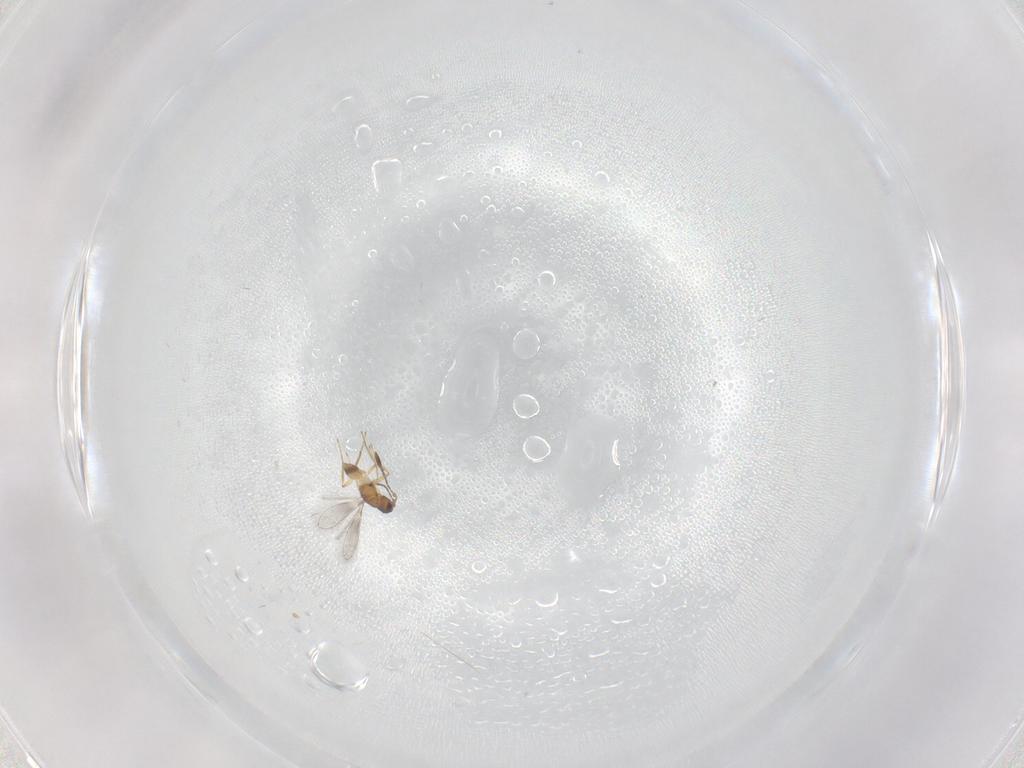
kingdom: Animalia
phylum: Arthropoda
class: Insecta
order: Hymenoptera
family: Mymaridae
